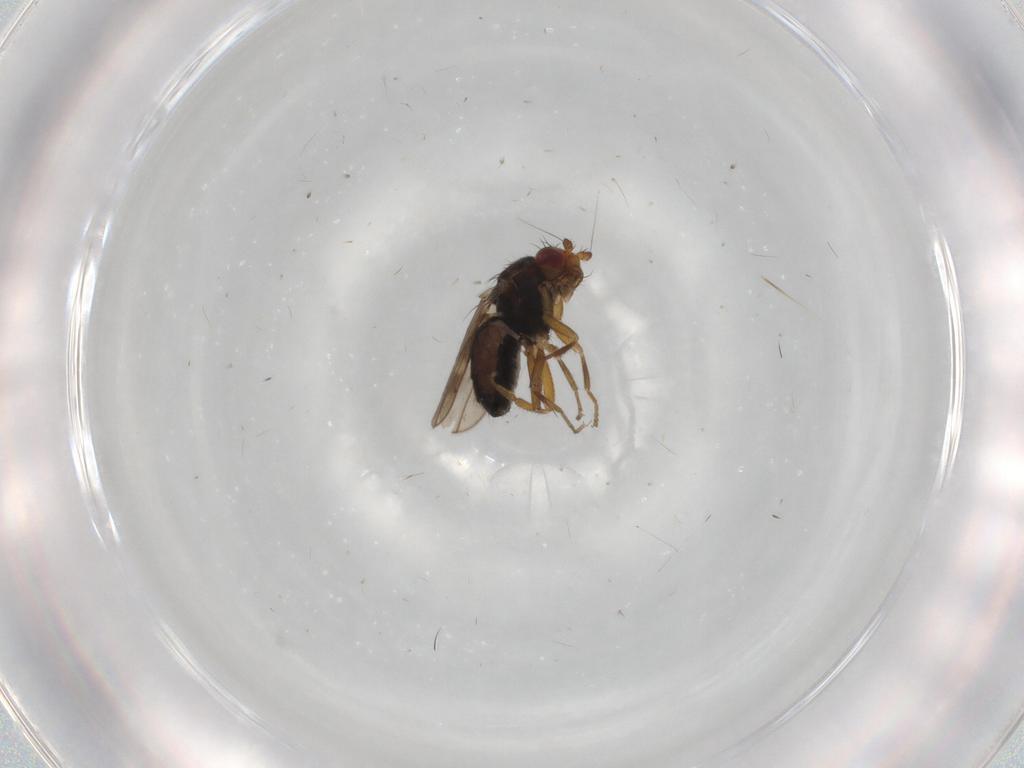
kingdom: Animalia
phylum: Arthropoda
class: Insecta
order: Diptera
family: Sphaeroceridae
